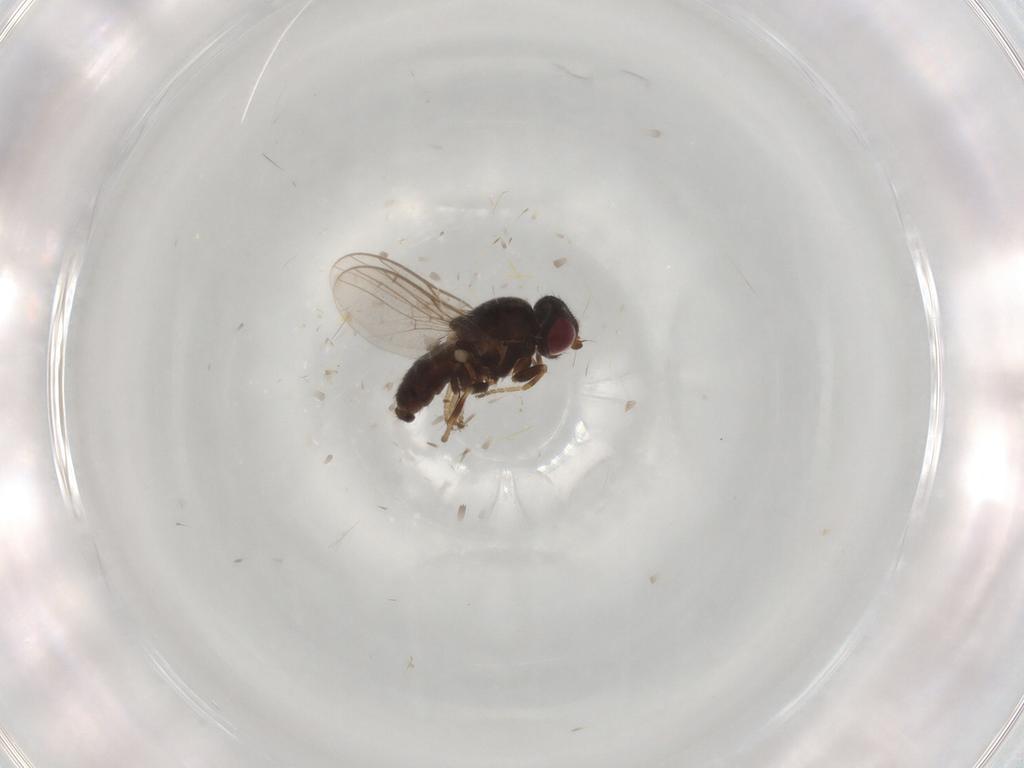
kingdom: Animalia
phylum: Arthropoda
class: Insecta
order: Diptera
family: Chloropidae
